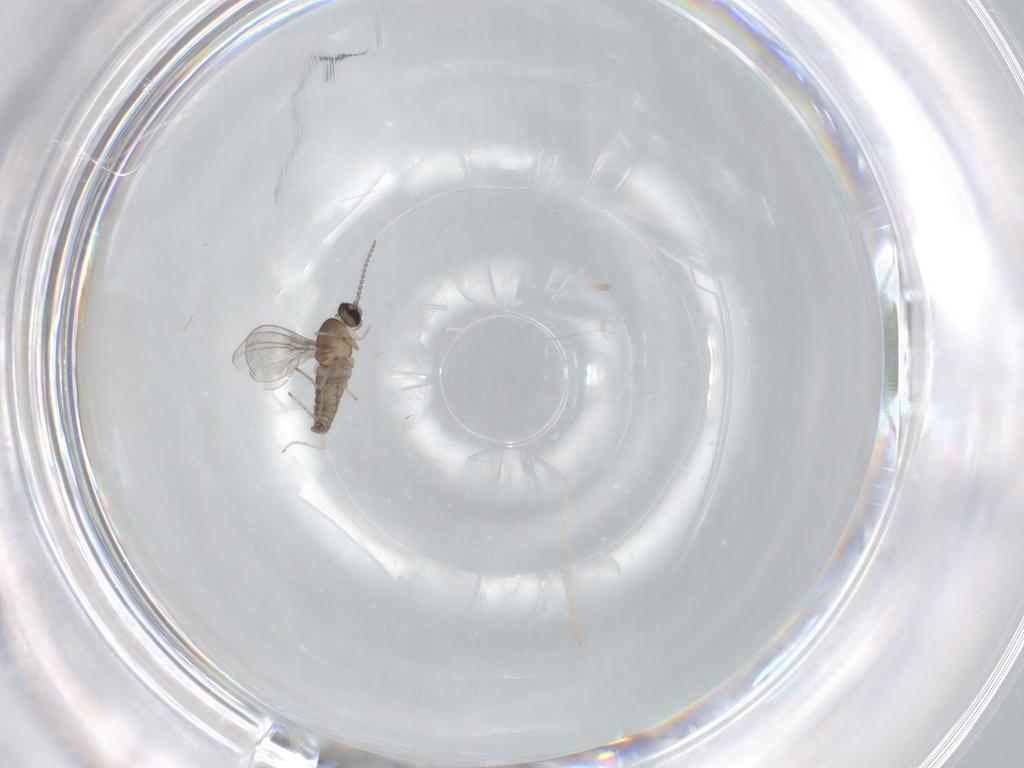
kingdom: Animalia
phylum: Arthropoda
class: Insecta
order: Diptera
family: Cecidomyiidae
